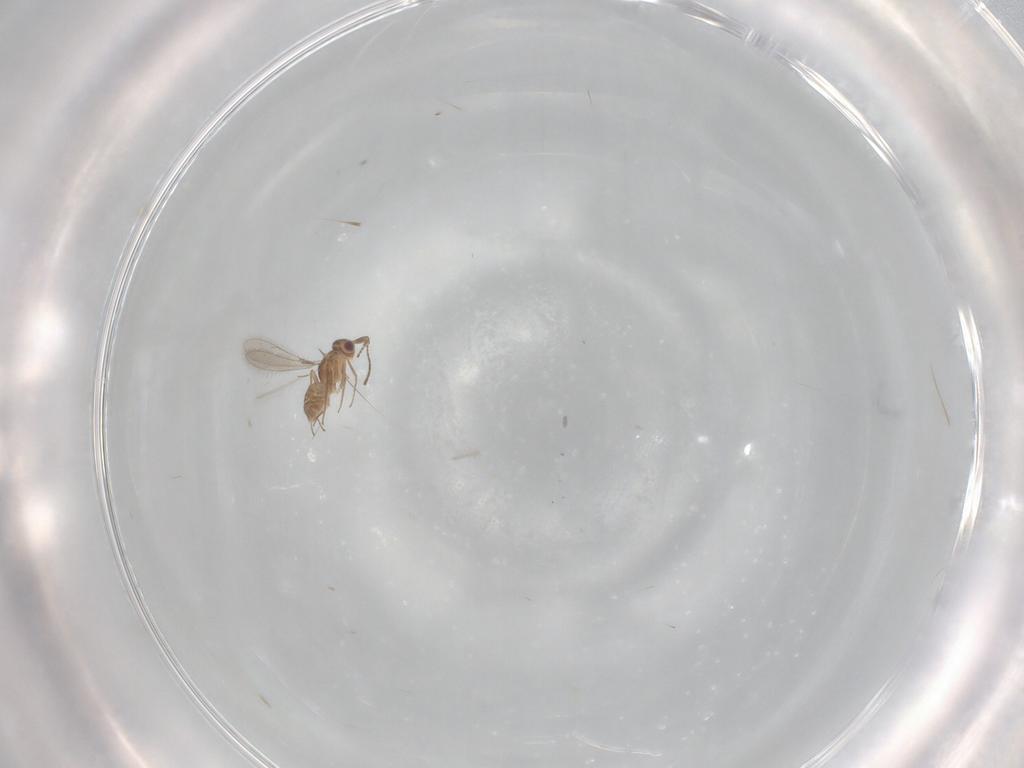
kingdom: Animalia
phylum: Arthropoda
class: Insecta
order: Hymenoptera
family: Mymaridae
